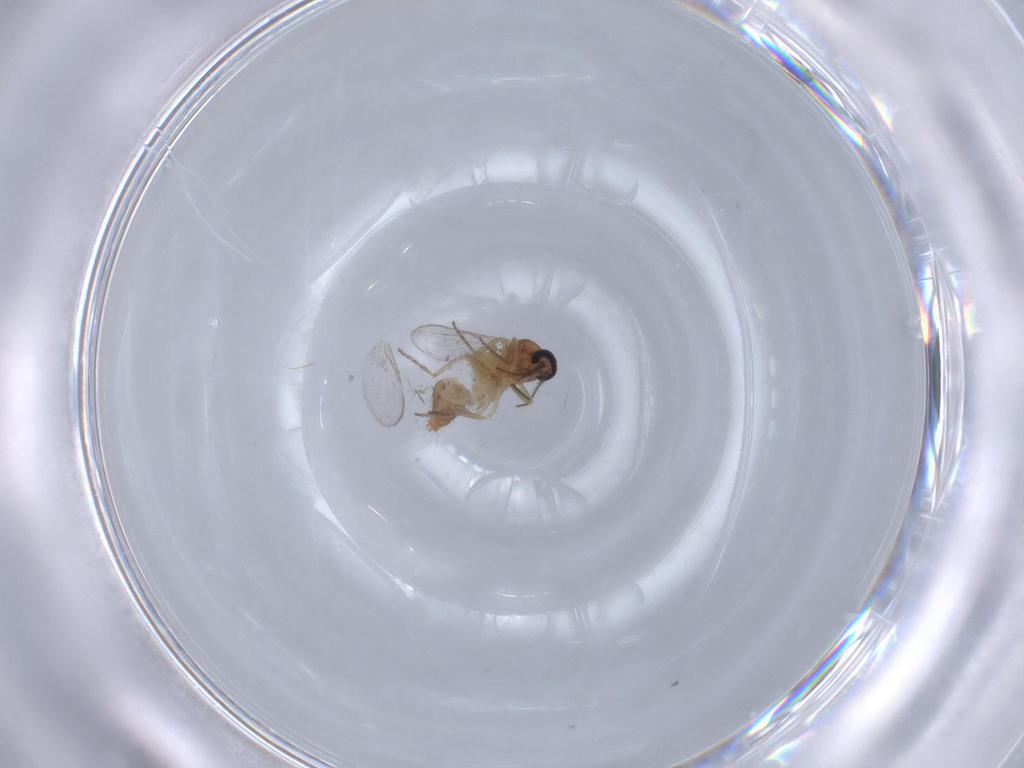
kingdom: Animalia
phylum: Arthropoda
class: Insecta
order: Diptera
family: Ceratopogonidae
